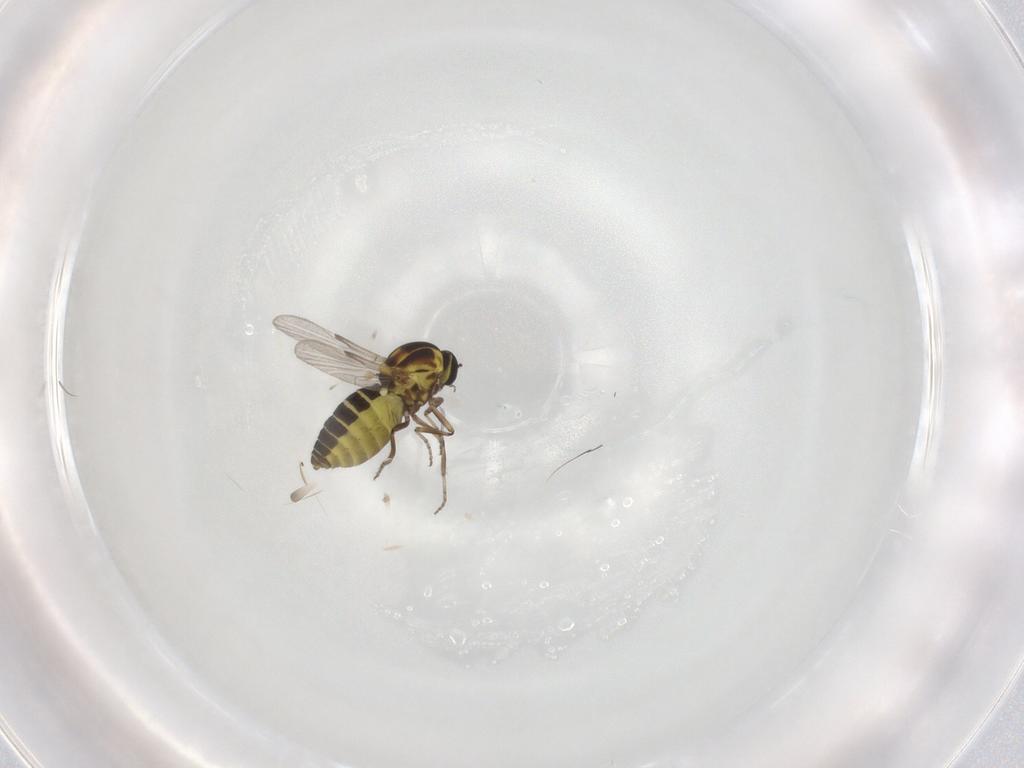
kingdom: Animalia
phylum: Arthropoda
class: Insecta
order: Diptera
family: Ceratopogonidae
